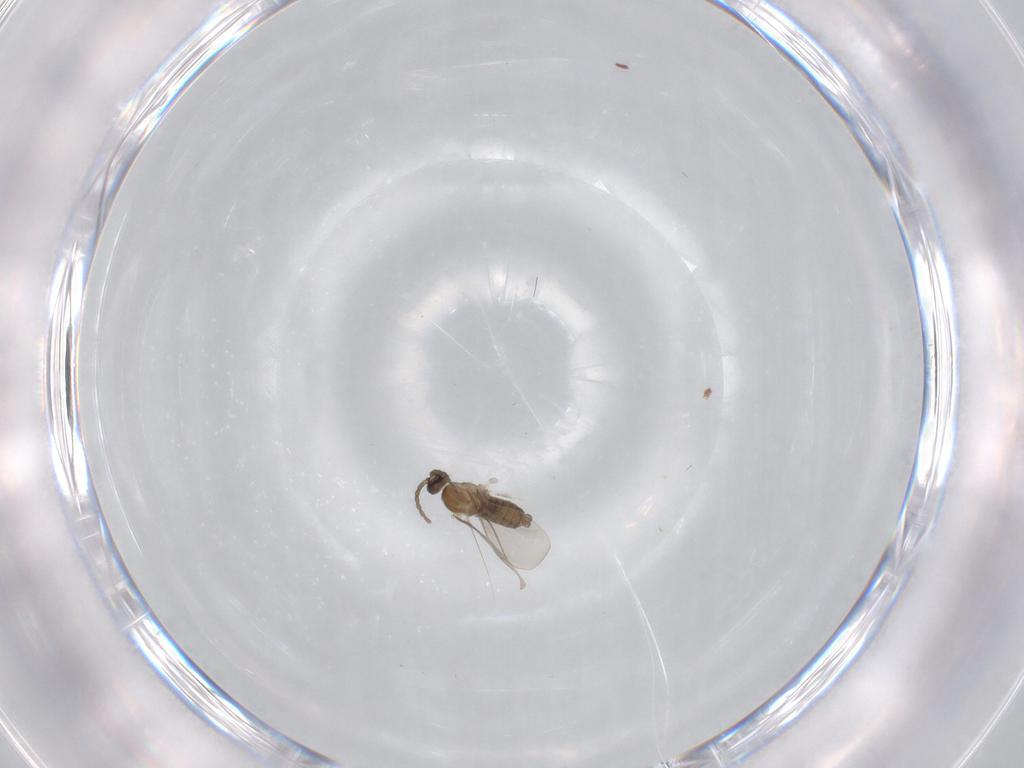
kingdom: Animalia
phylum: Arthropoda
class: Insecta
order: Diptera
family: Cecidomyiidae
